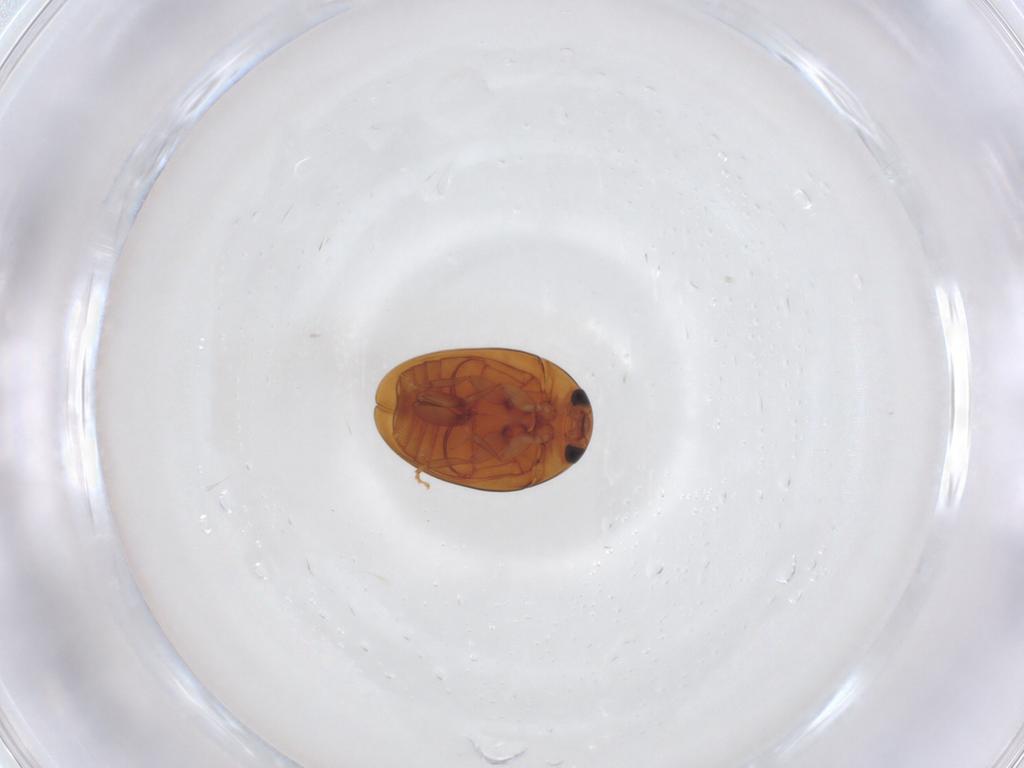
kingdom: Animalia
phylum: Arthropoda
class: Insecta
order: Coleoptera
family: Phalacridae
